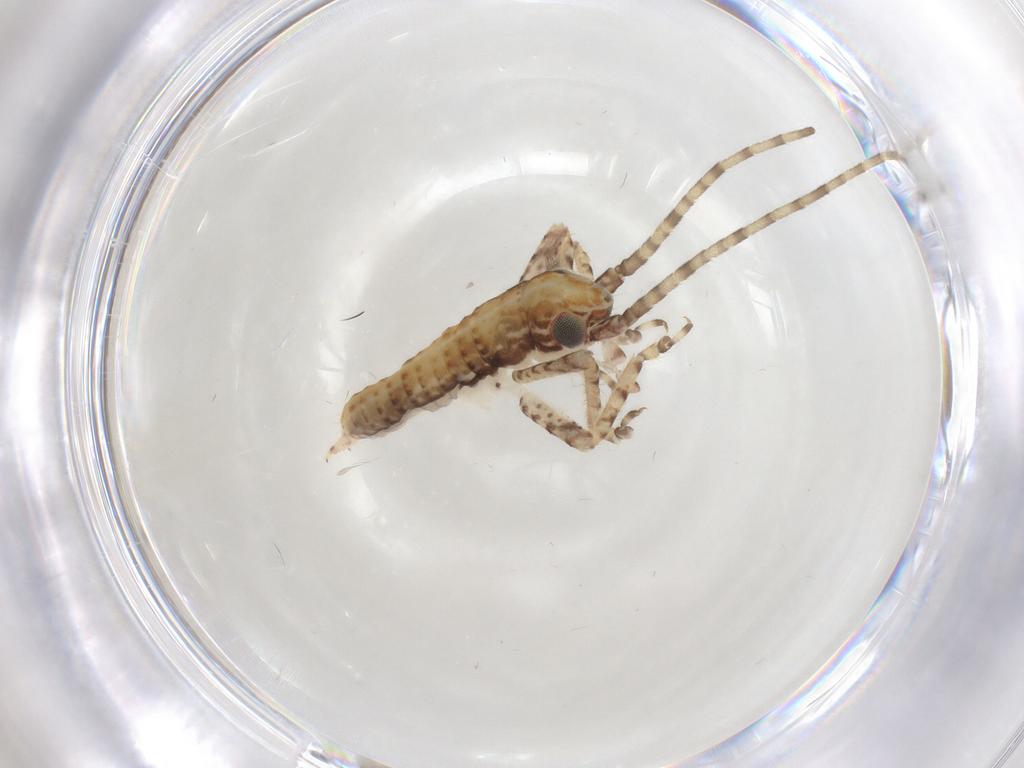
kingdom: Animalia
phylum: Arthropoda
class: Insecta
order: Orthoptera
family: Gryllidae
